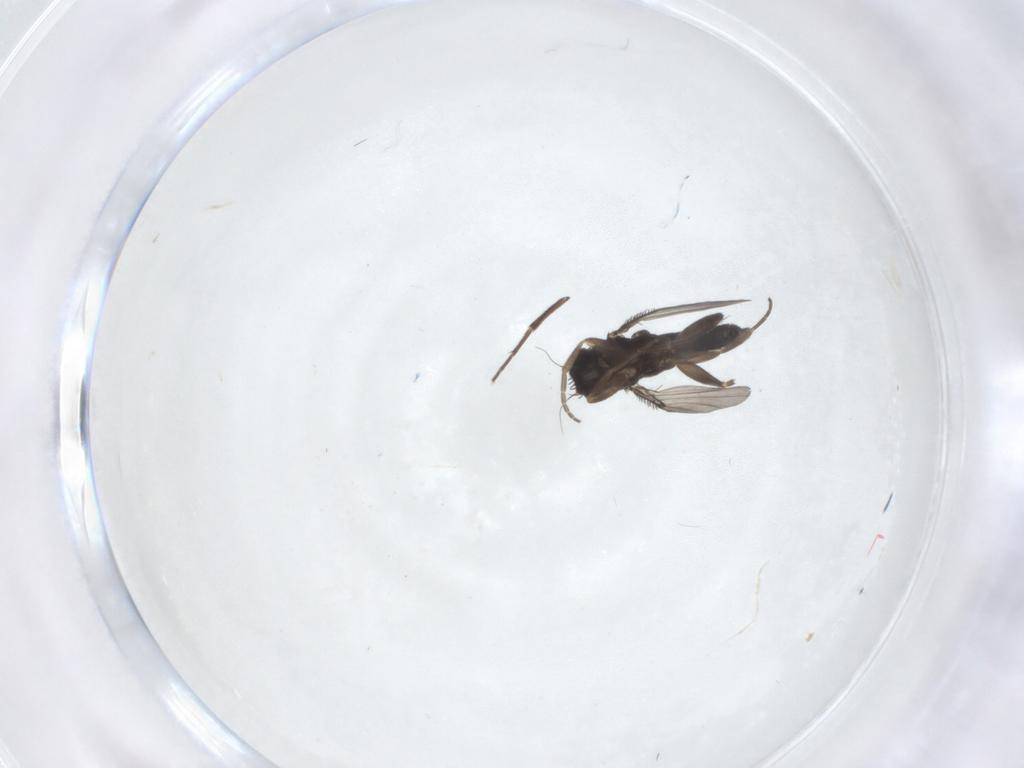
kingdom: Animalia
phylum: Arthropoda
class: Insecta
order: Diptera
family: Phoridae
